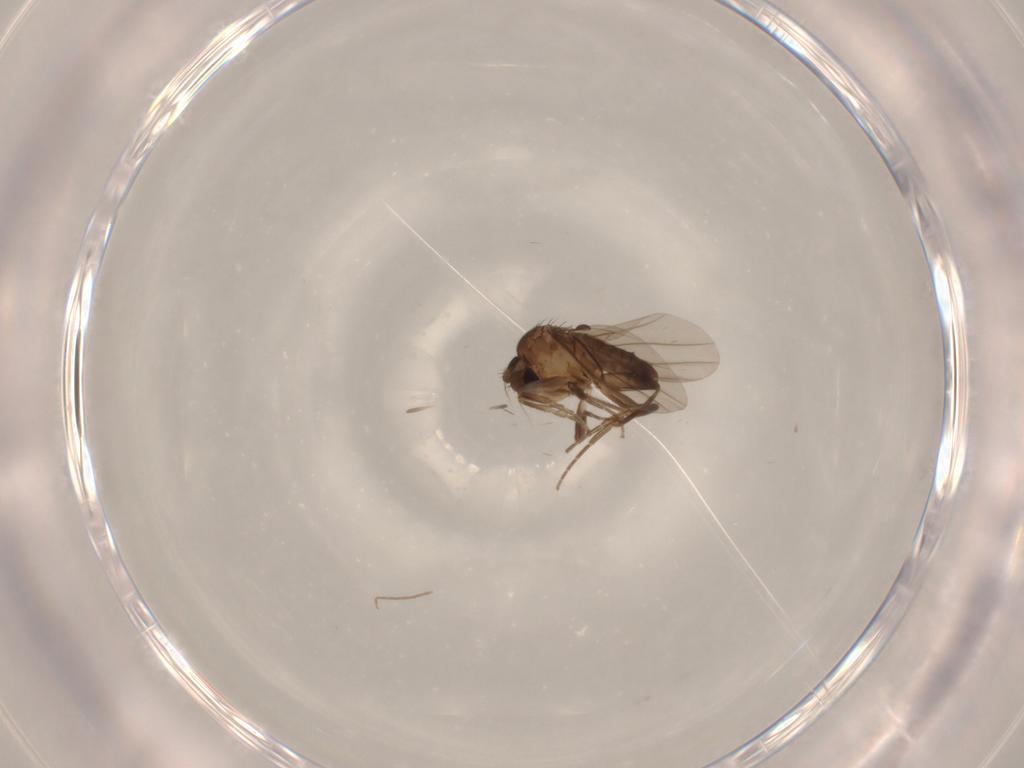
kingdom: Animalia
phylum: Arthropoda
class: Insecta
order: Diptera
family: Phoridae
